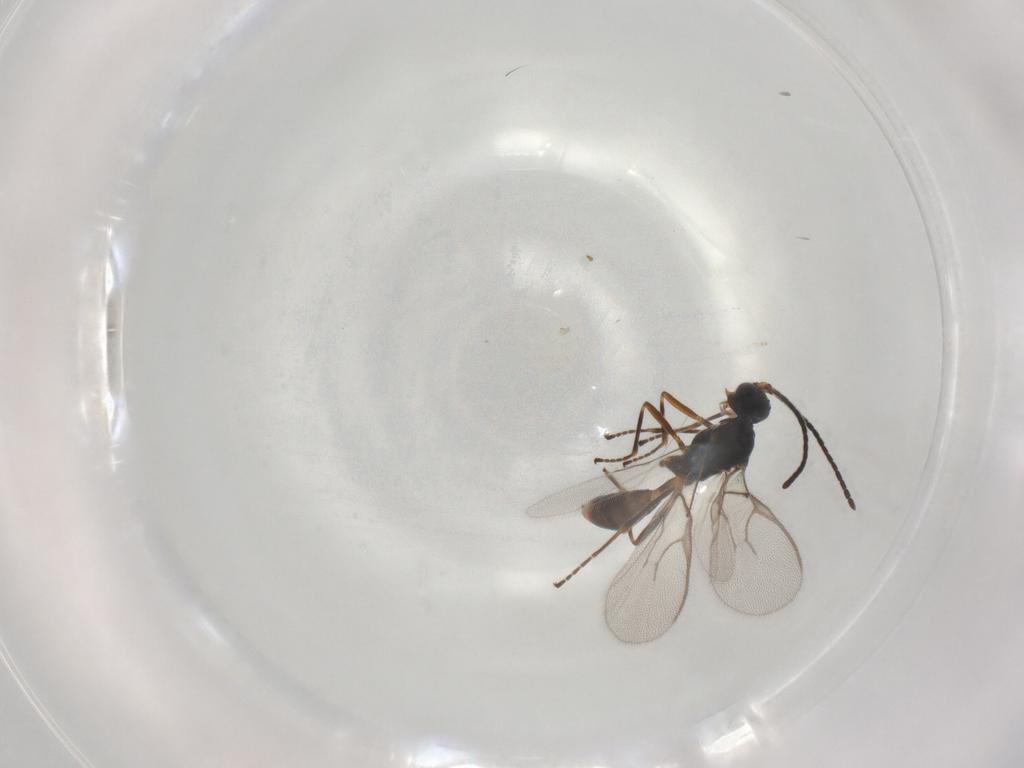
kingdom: Animalia
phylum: Arthropoda
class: Insecta
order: Hymenoptera
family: Braconidae
